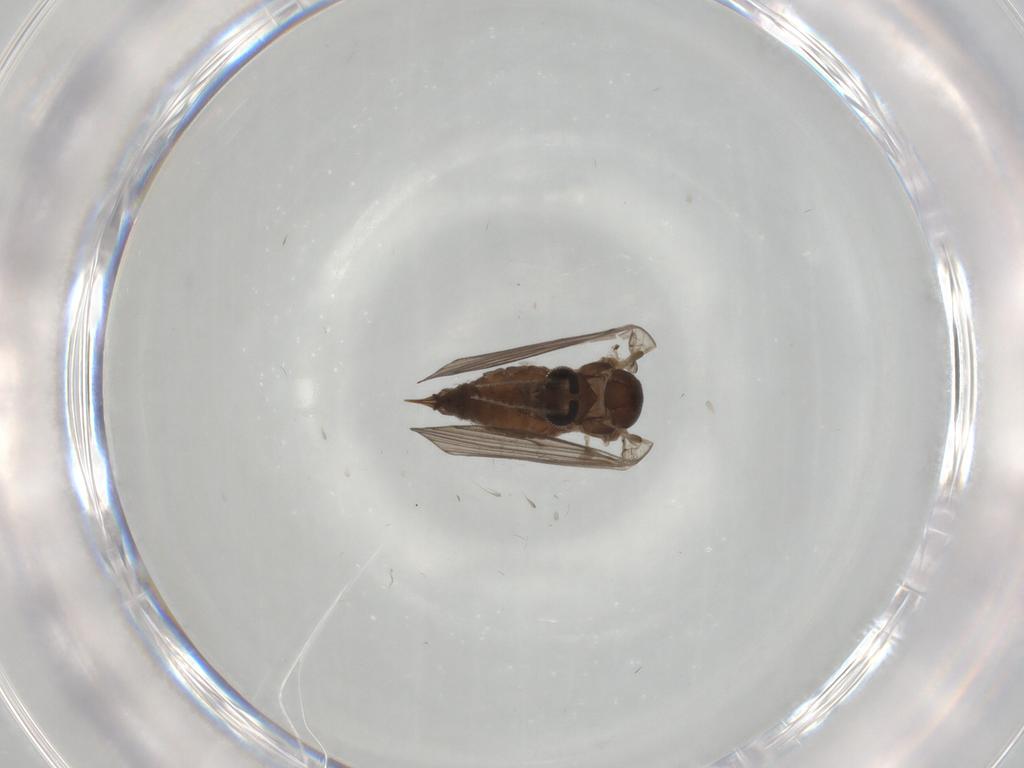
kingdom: Animalia
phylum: Arthropoda
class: Insecta
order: Diptera
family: Psychodidae
